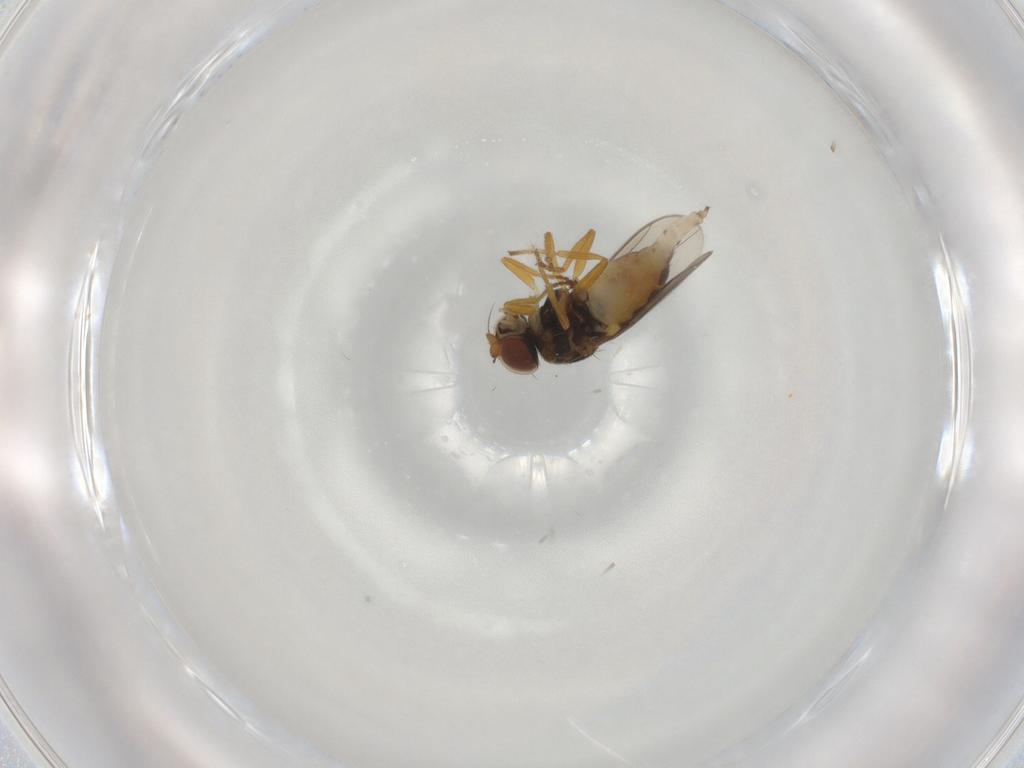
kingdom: Animalia
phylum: Arthropoda
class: Insecta
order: Diptera
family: Chloropidae
